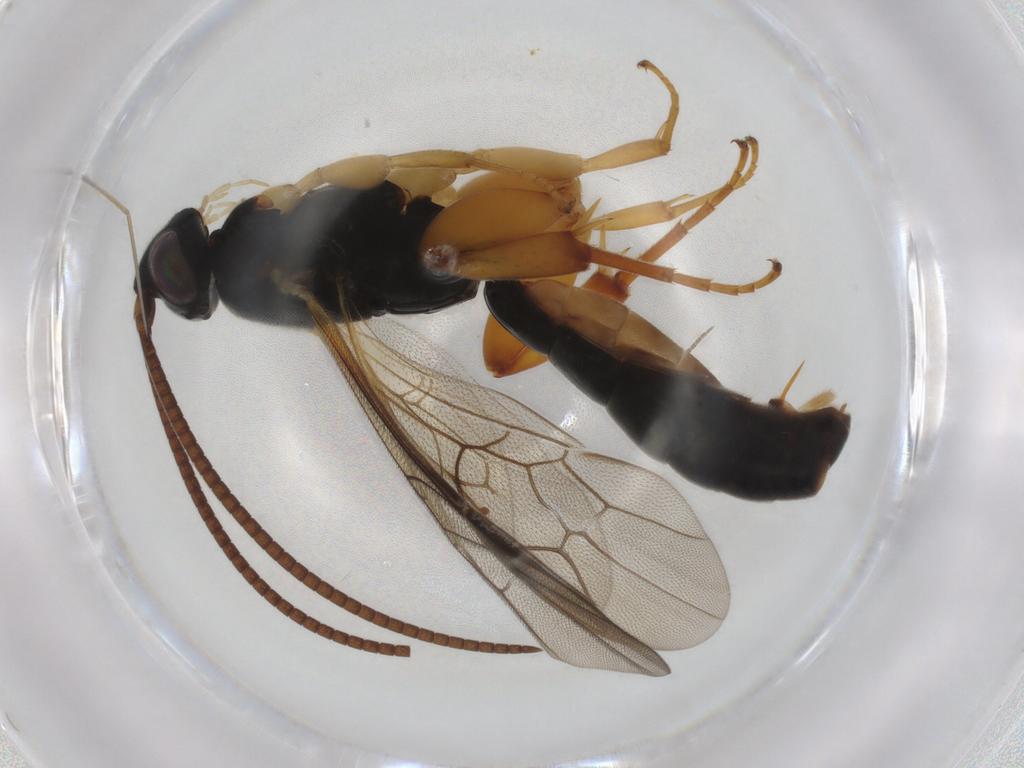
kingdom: Animalia
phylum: Arthropoda
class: Insecta
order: Hymenoptera
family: Ichneumonidae
